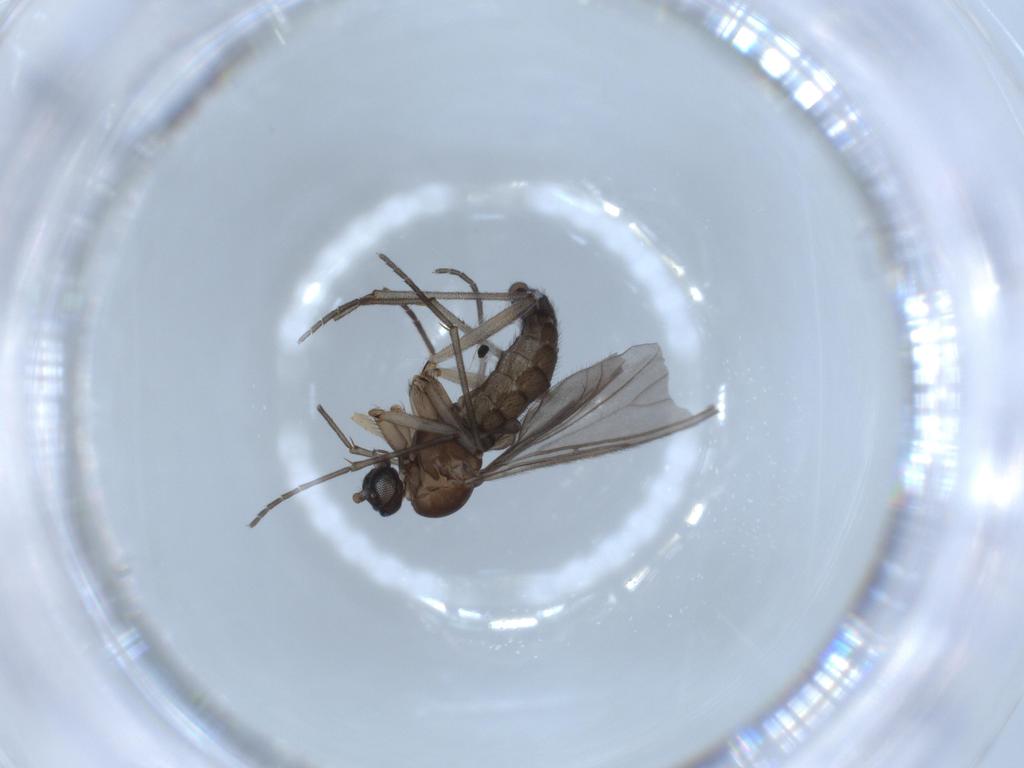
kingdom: Animalia
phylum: Arthropoda
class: Insecta
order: Diptera
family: Sciaridae
